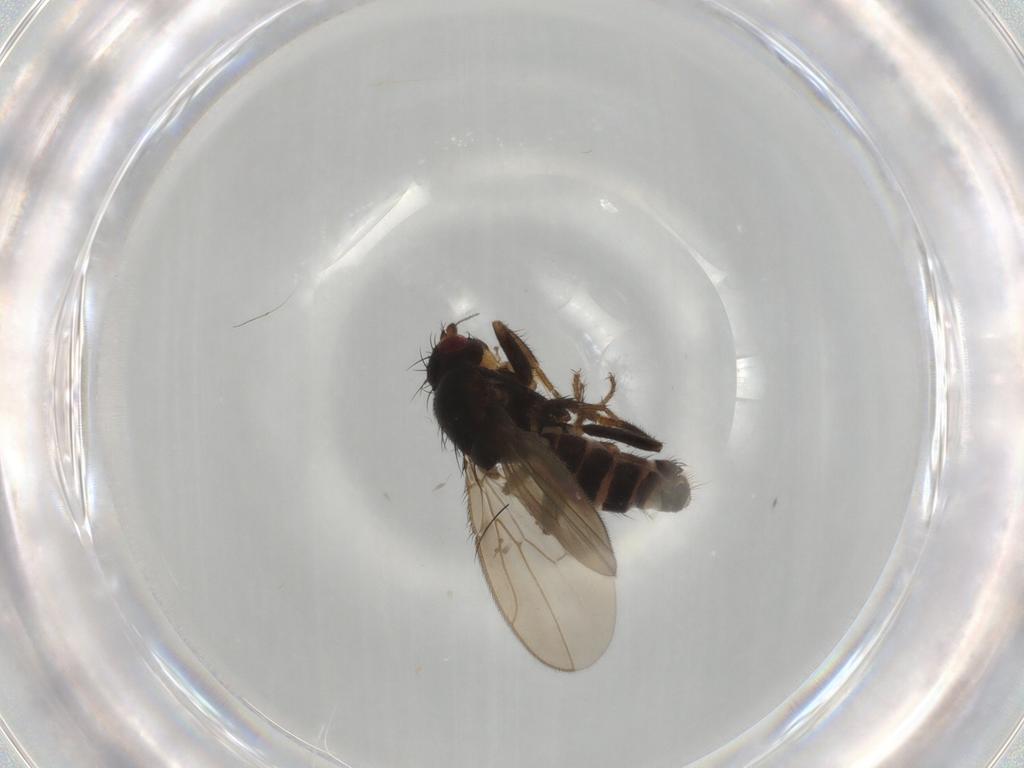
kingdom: Animalia
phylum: Arthropoda
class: Insecta
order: Diptera
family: Sphaeroceridae
